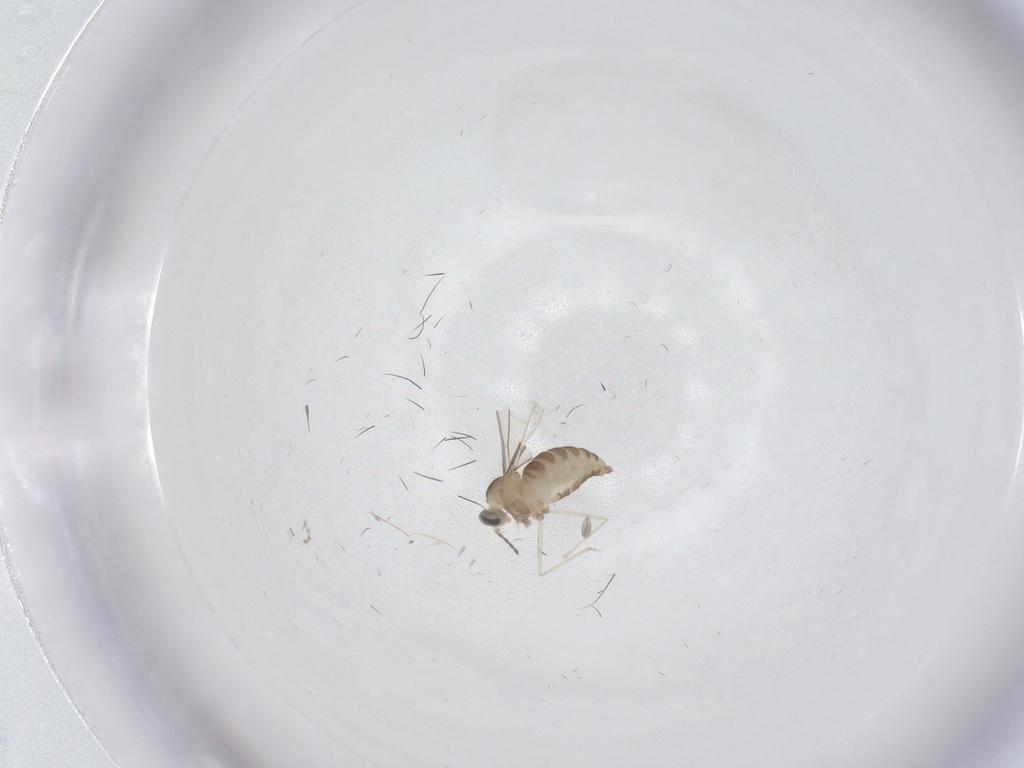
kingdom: Animalia
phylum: Arthropoda
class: Insecta
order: Diptera
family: Cecidomyiidae
